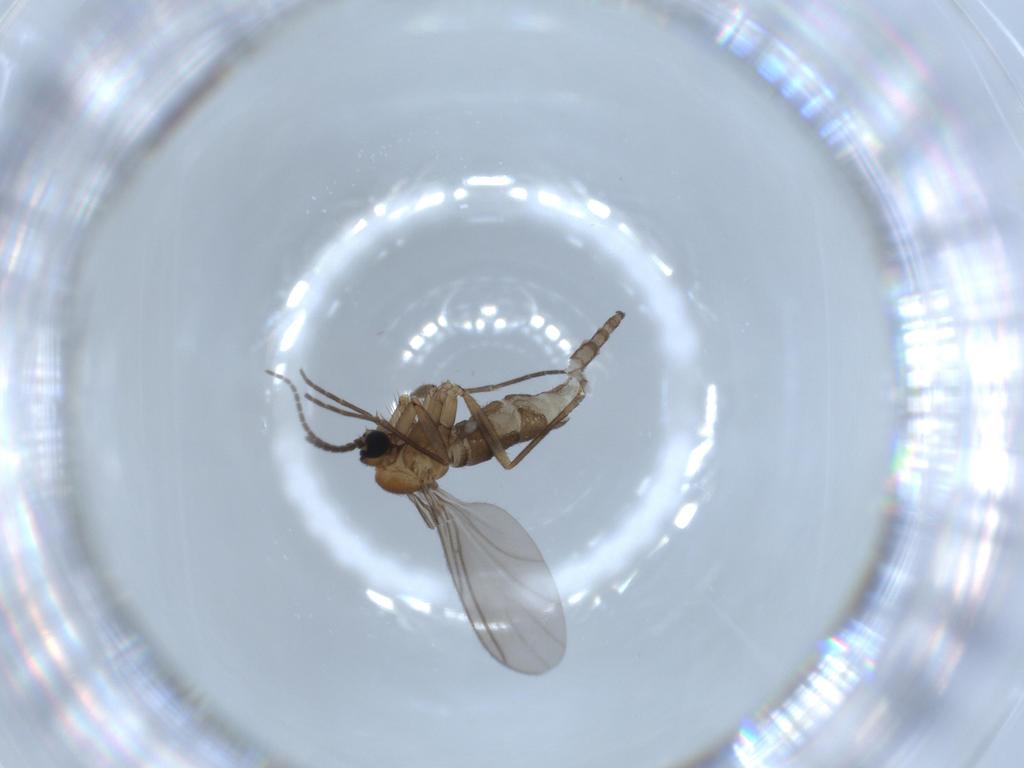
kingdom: Animalia
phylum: Arthropoda
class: Insecta
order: Diptera
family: Sciaridae
